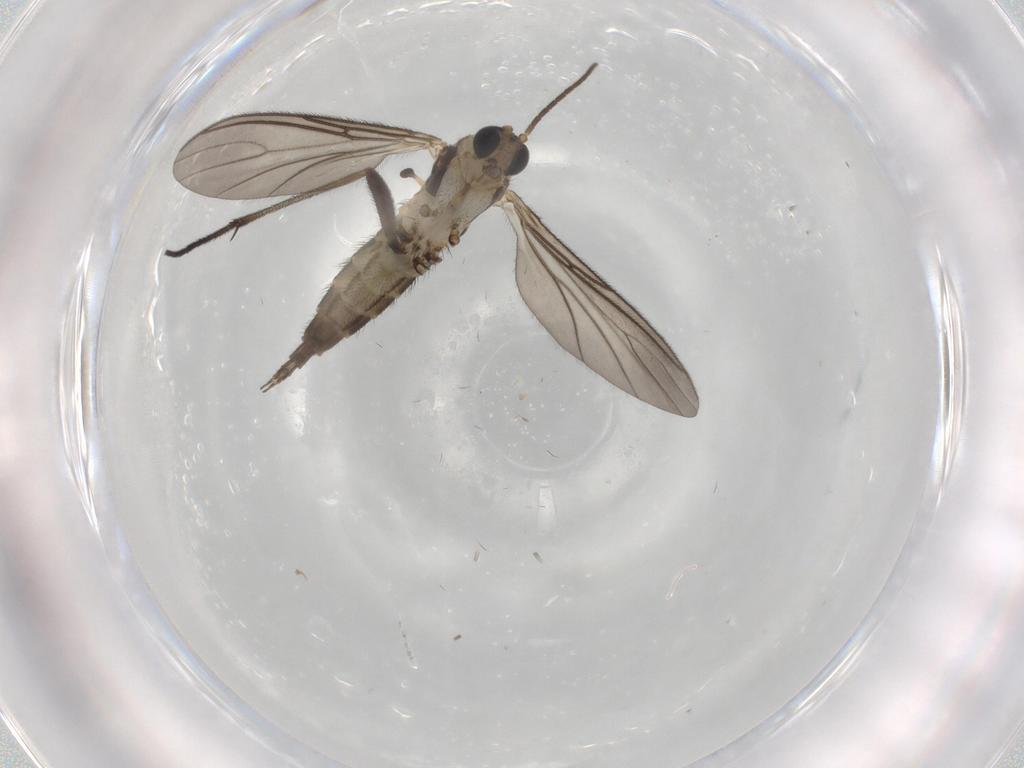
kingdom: Animalia
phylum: Arthropoda
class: Insecta
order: Diptera
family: Sciaridae
